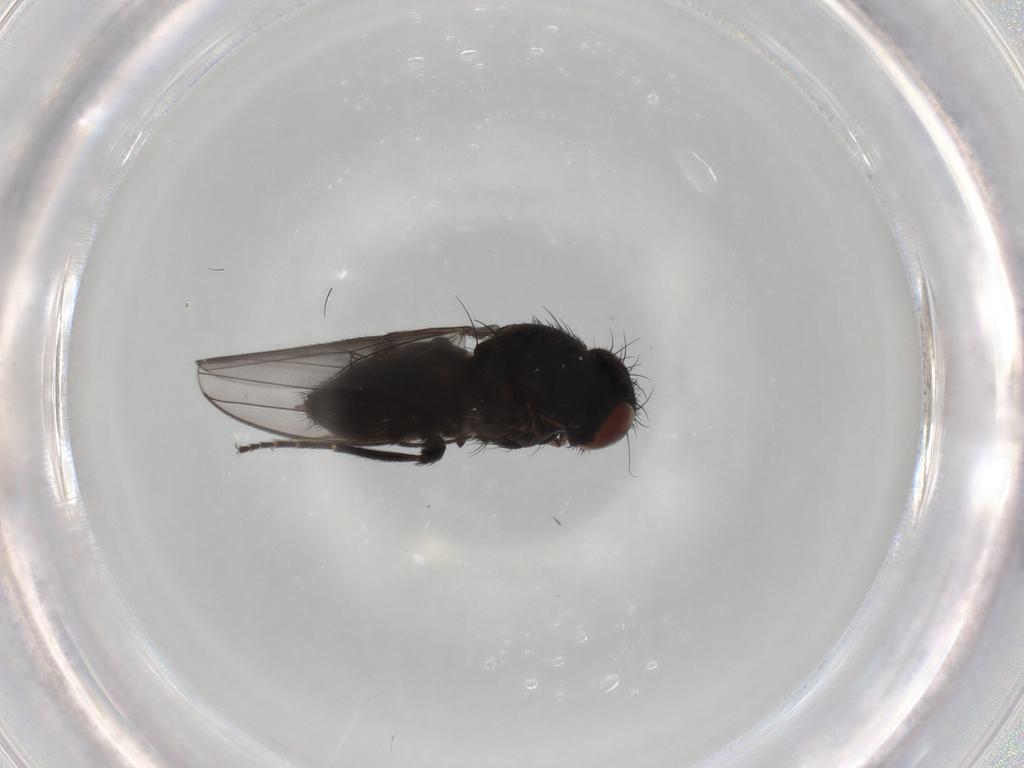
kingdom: Animalia
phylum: Arthropoda
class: Insecta
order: Diptera
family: Milichiidae
